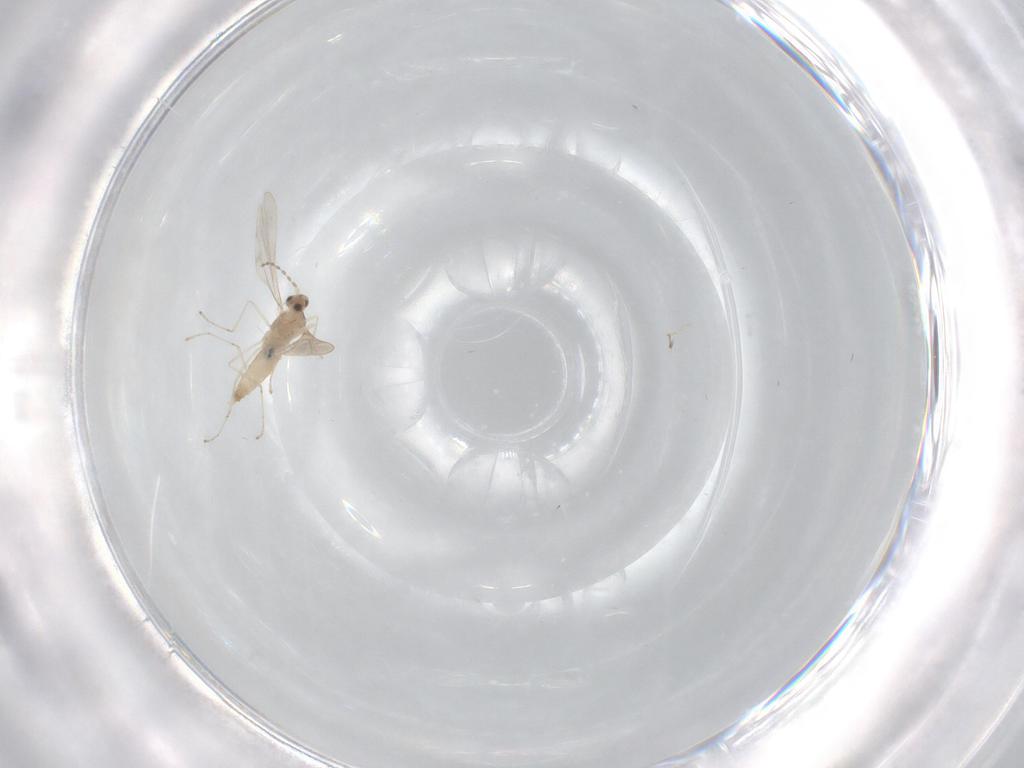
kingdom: Animalia
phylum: Arthropoda
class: Insecta
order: Diptera
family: Cecidomyiidae
